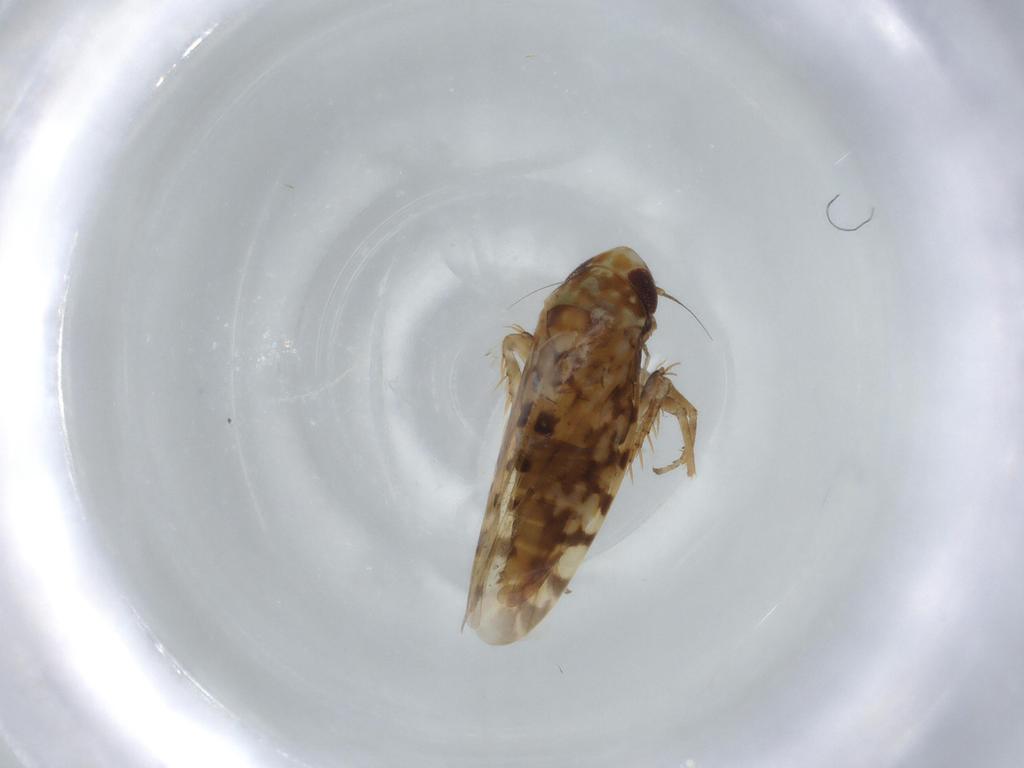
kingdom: Animalia
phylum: Arthropoda
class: Insecta
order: Hemiptera
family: Cicadellidae
